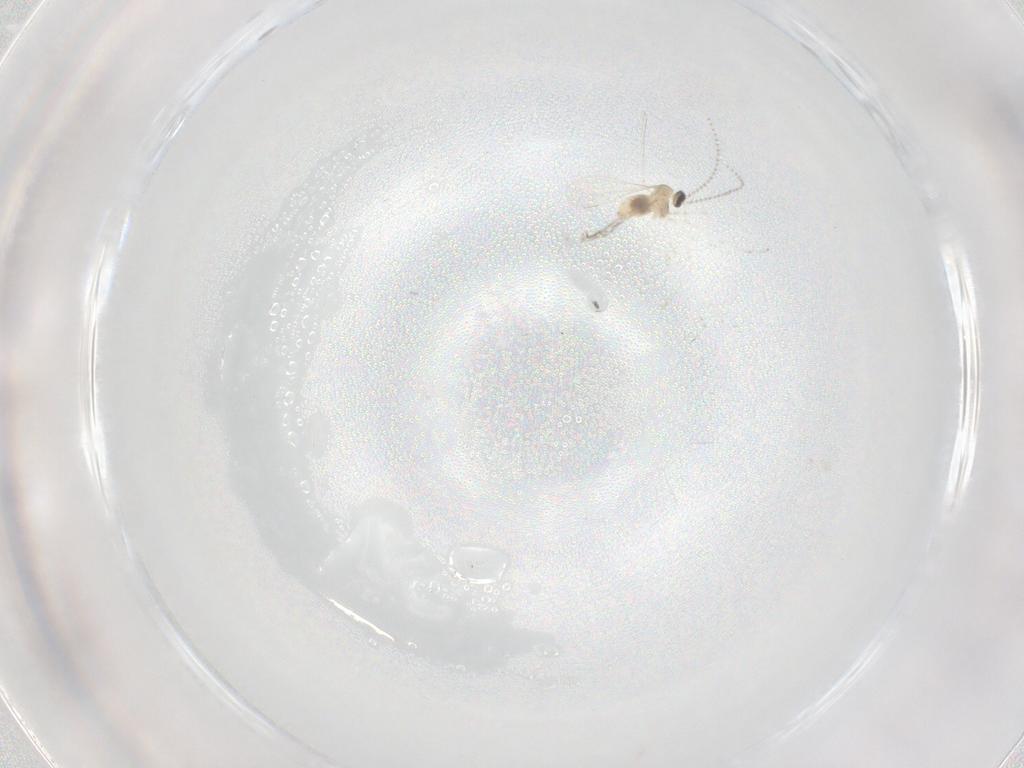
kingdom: Animalia
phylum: Arthropoda
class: Insecta
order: Diptera
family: Cecidomyiidae
